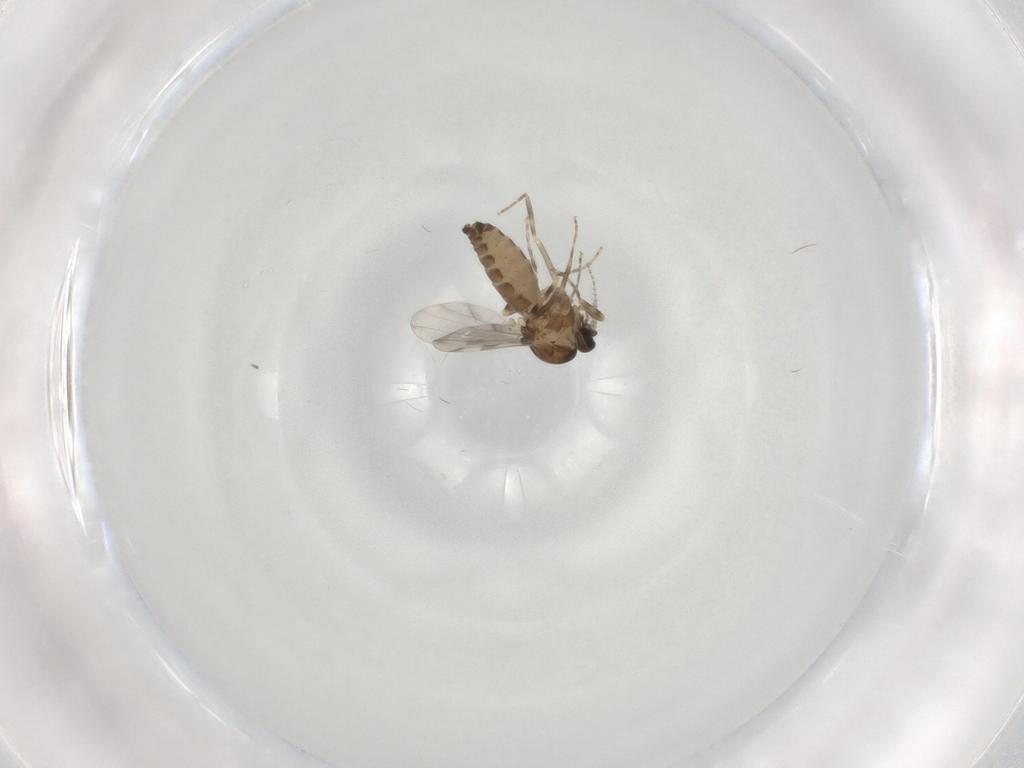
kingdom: Animalia
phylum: Arthropoda
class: Insecta
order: Diptera
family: Ceratopogonidae
